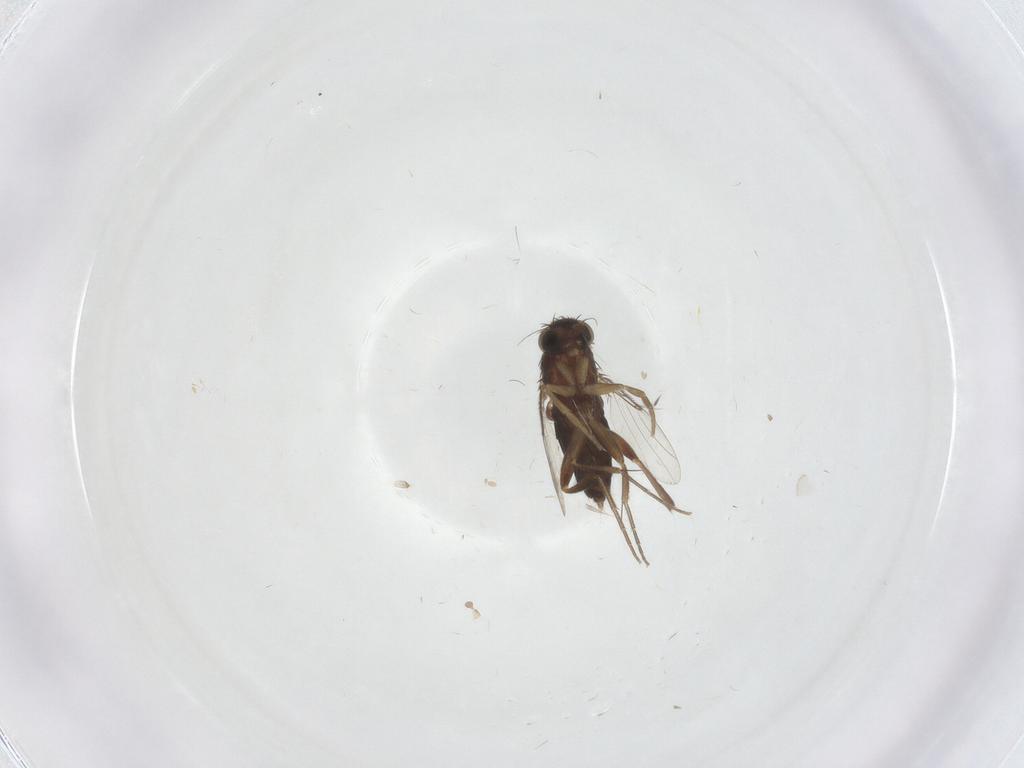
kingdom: Animalia
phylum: Arthropoda
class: Insecta
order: Diptera
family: Phoridae
